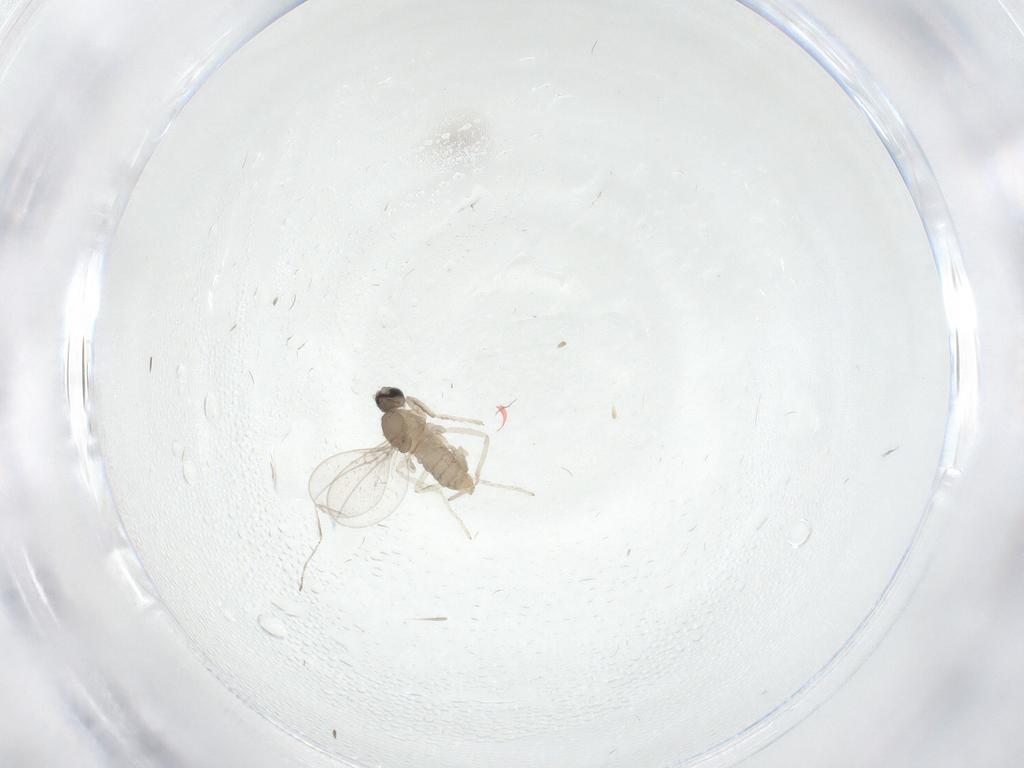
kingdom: Animalia
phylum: Arthropoda
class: Insecta
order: Diptera
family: Cecidomyiidae
